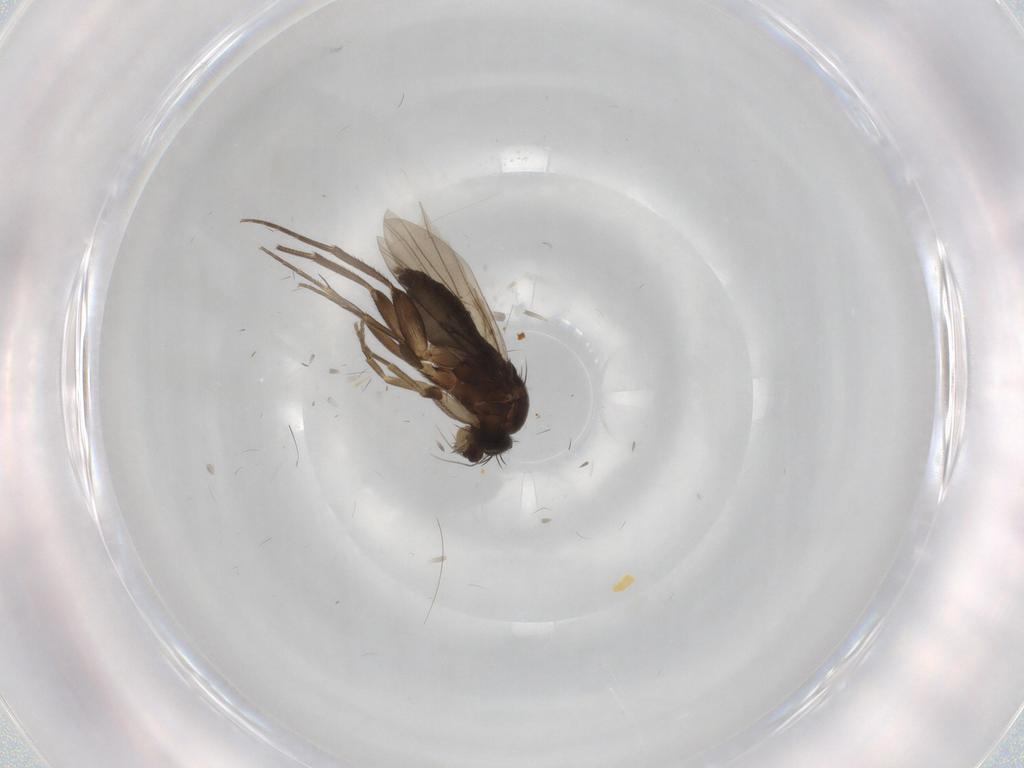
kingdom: Animalia
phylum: Arthropoda
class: Insecta
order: Diptera
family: Phoridae
